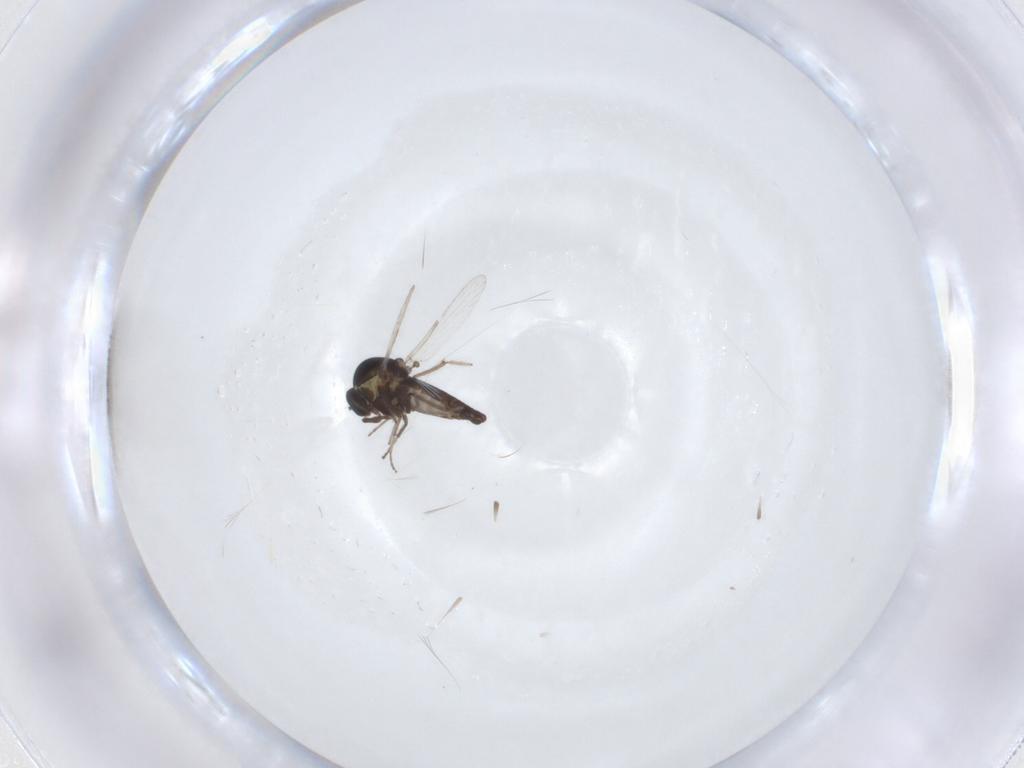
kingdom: Animalia
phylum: Arthropoda
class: Insecta
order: Diptera
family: Ceratopogonidae
